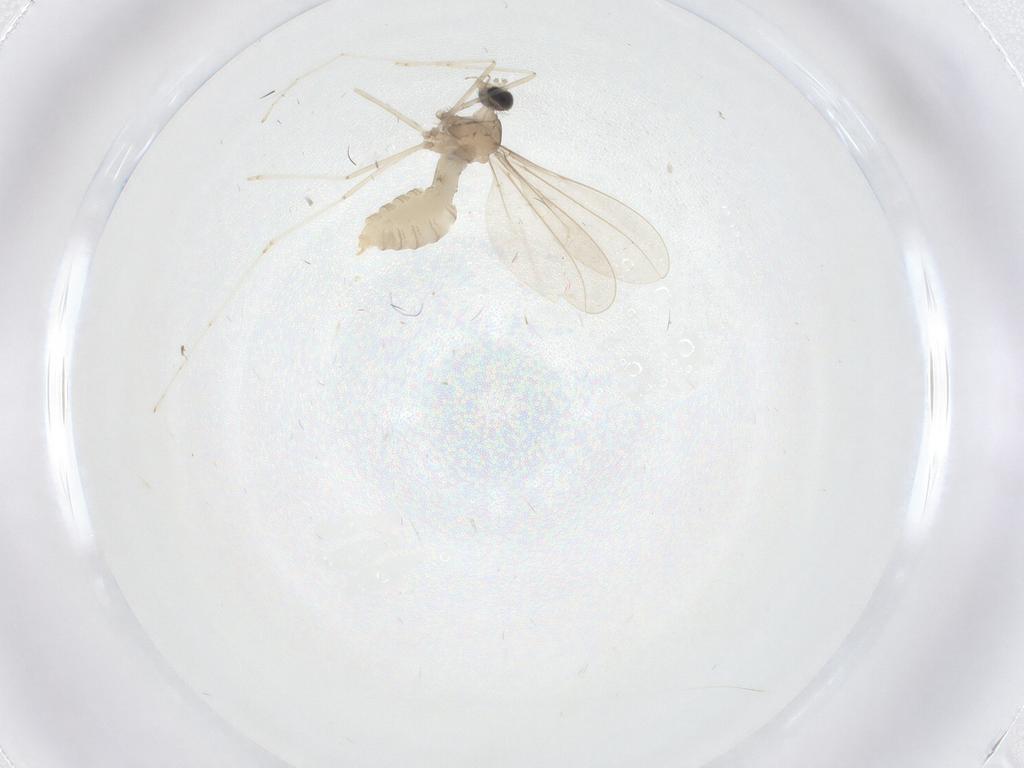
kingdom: Animalia
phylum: Arthropoda
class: Insecta
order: Diptera
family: Cecidomyiidae
